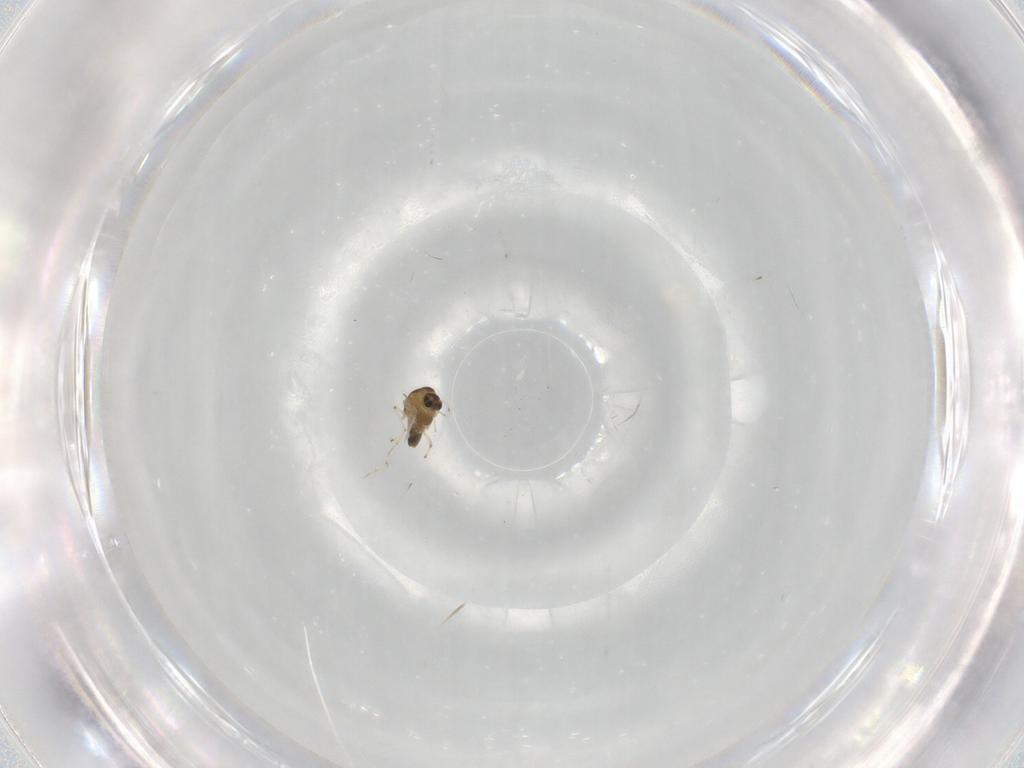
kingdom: Animalia
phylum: Arthropoda
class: Insecta
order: Diptera
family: Chironomidae
